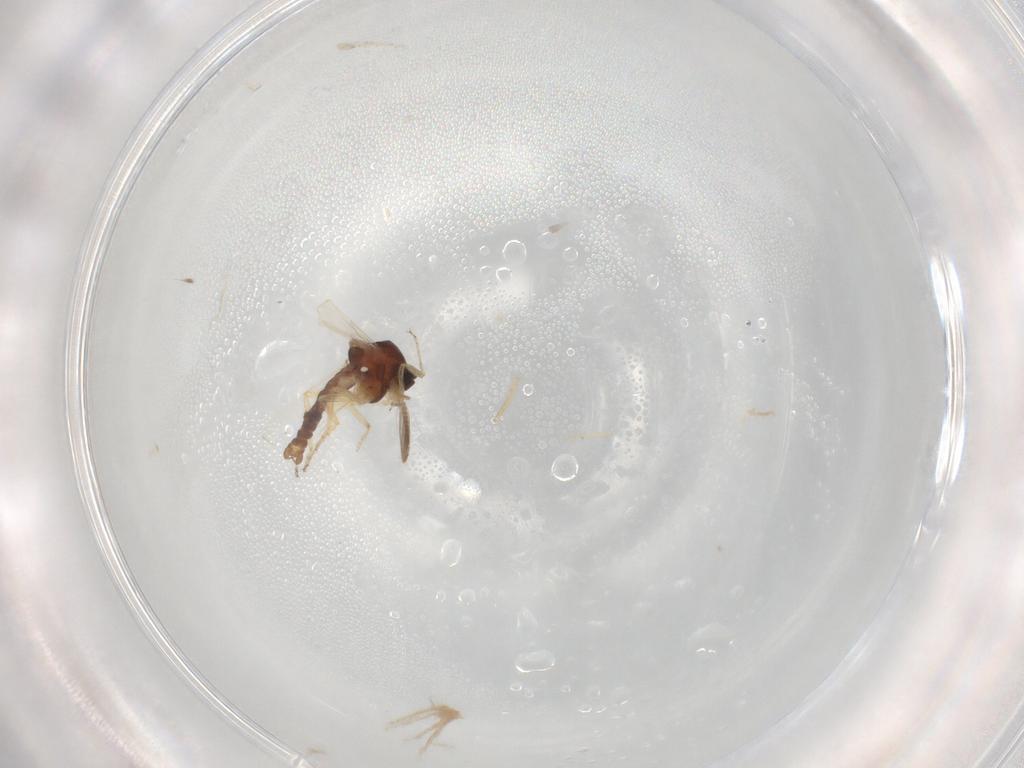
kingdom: Animalia
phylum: Arthropoda
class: Insecta
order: Diptera
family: Ceratopogonidae
